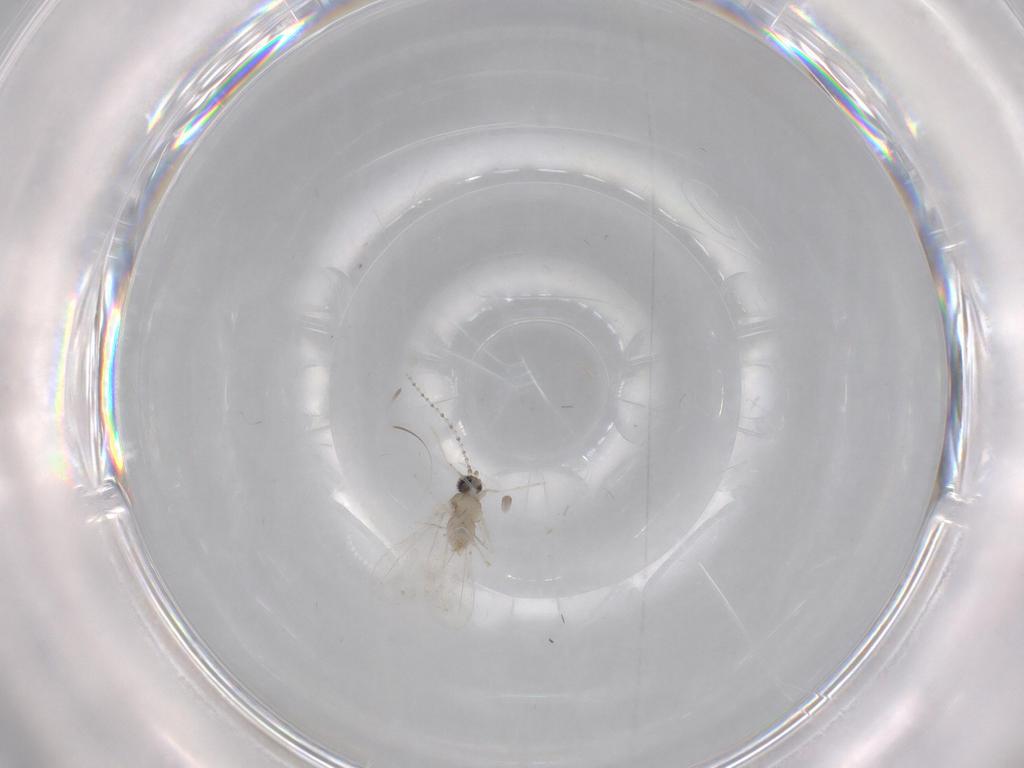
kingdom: Animalia
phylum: Arthropoda
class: Insecta
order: Diptera
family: Cecidomyiidae
